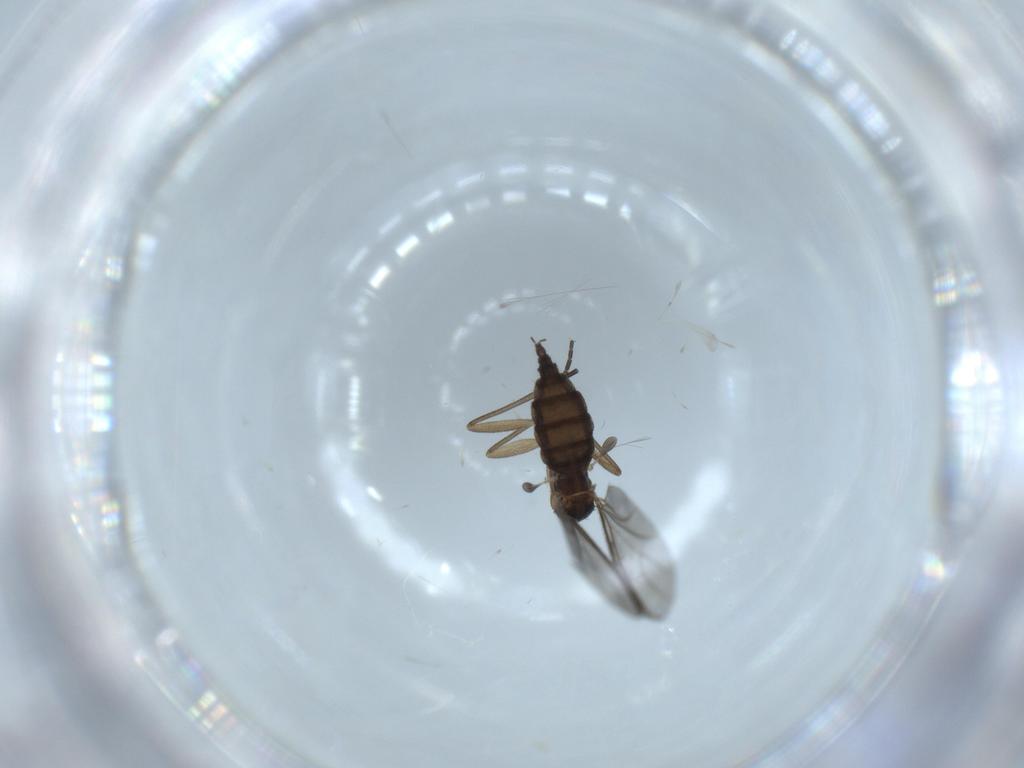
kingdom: Animalia
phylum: Arthropoda
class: Insecta
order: Diptera
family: Sciaridae
